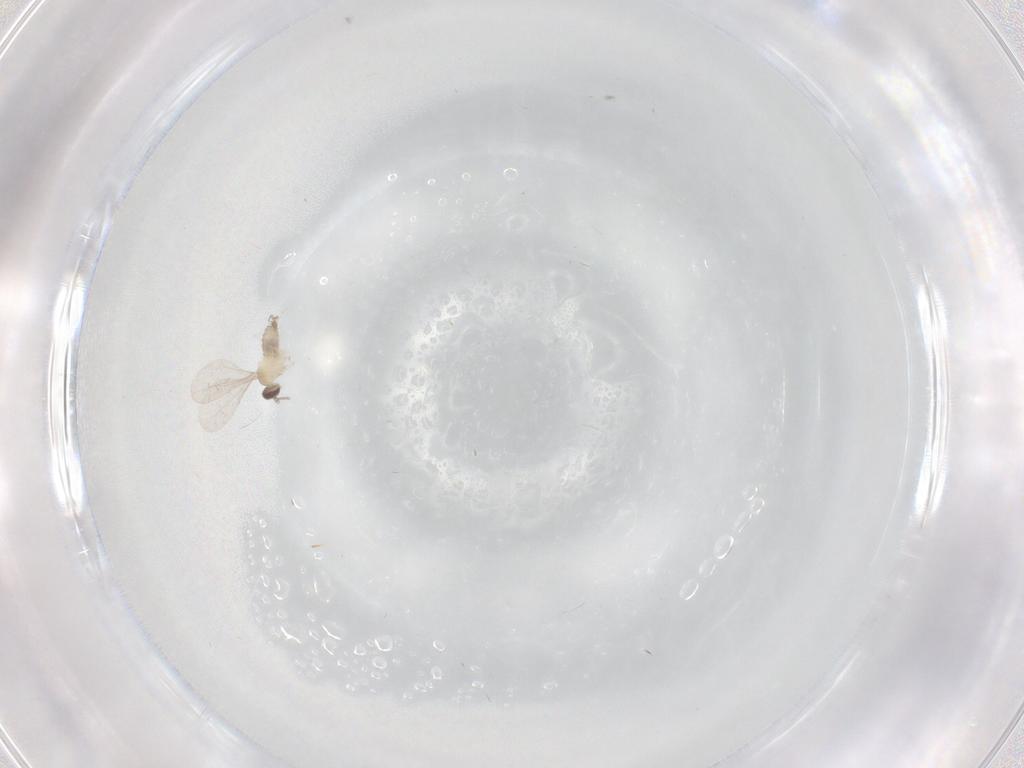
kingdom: Animalia
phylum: Arthropoda
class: Insecta
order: Diptera
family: Cecidomyiidae
